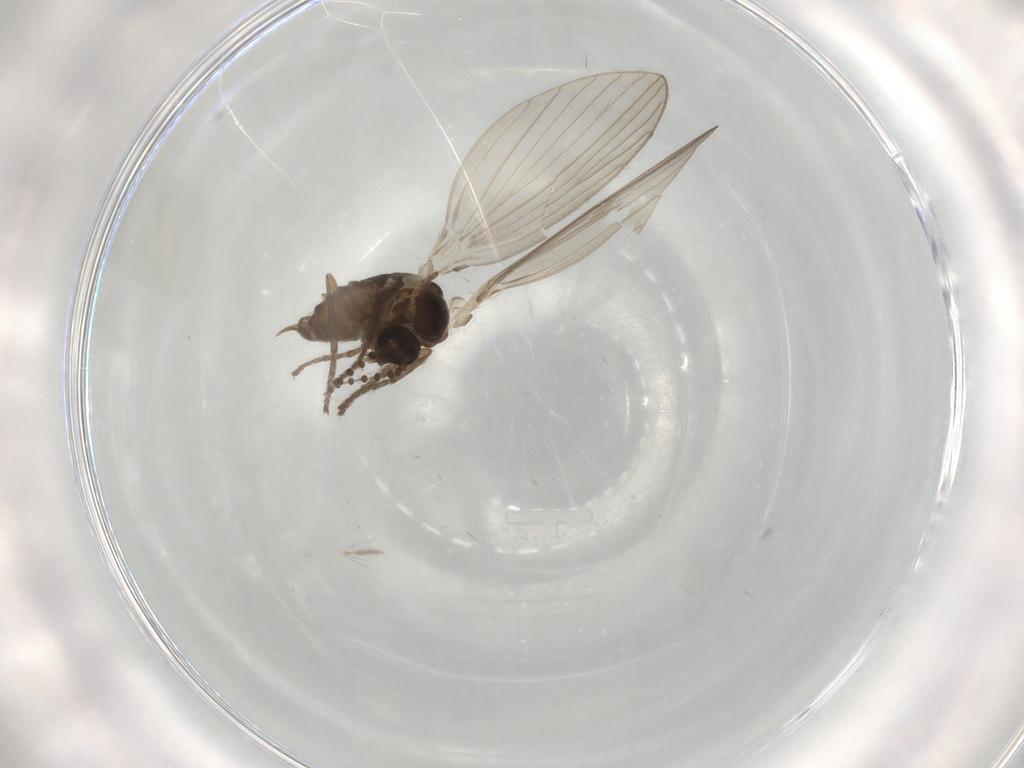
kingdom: Animalia
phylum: Arthropoda
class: Insecta
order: Diptera
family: Psychodidae
